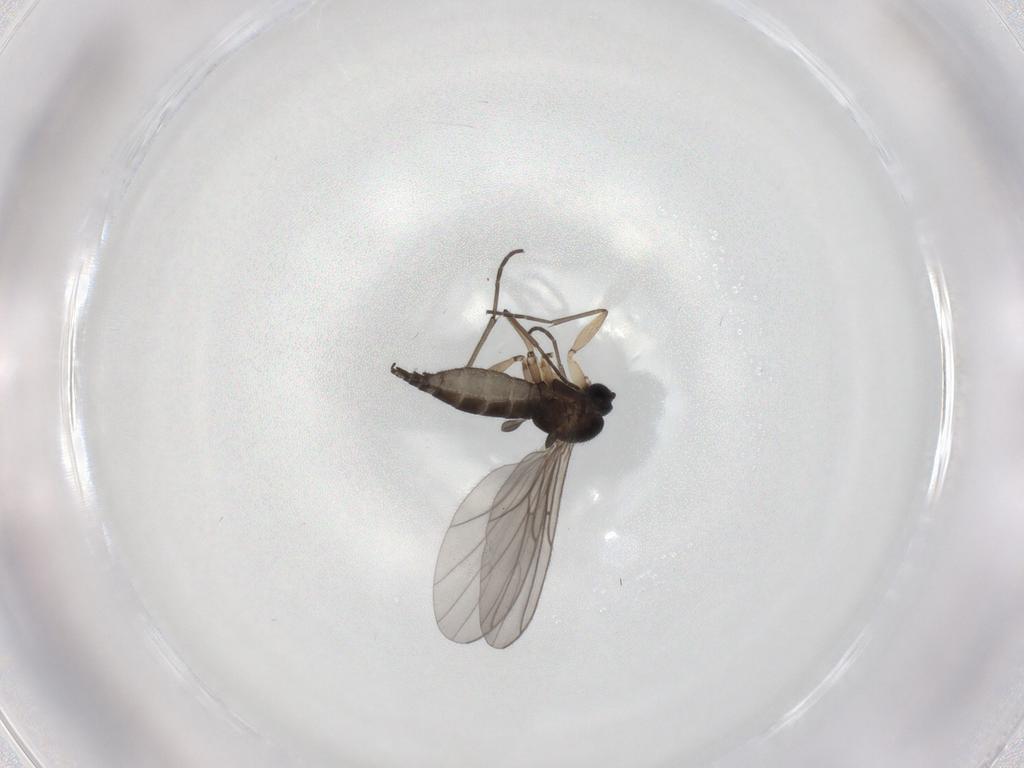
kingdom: Animalia
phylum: Arthropoda
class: Insecta
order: Diptera
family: Sciaridae
